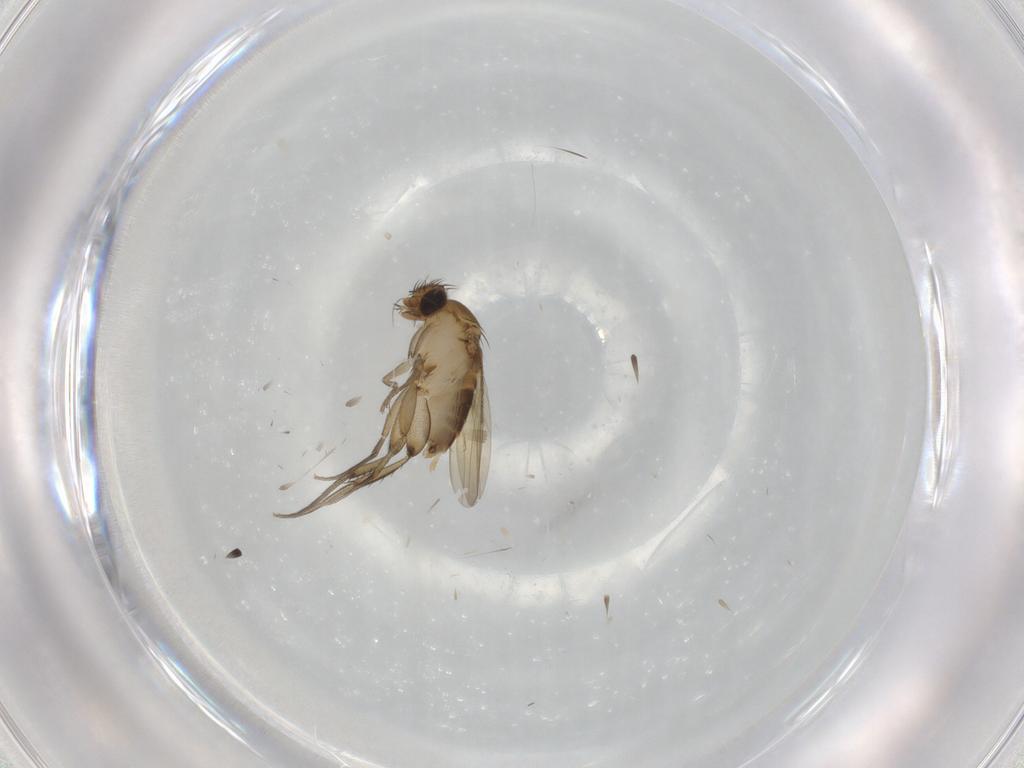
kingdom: Animalia
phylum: Arthropoda
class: Insecta
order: Diptera
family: Phoridae
